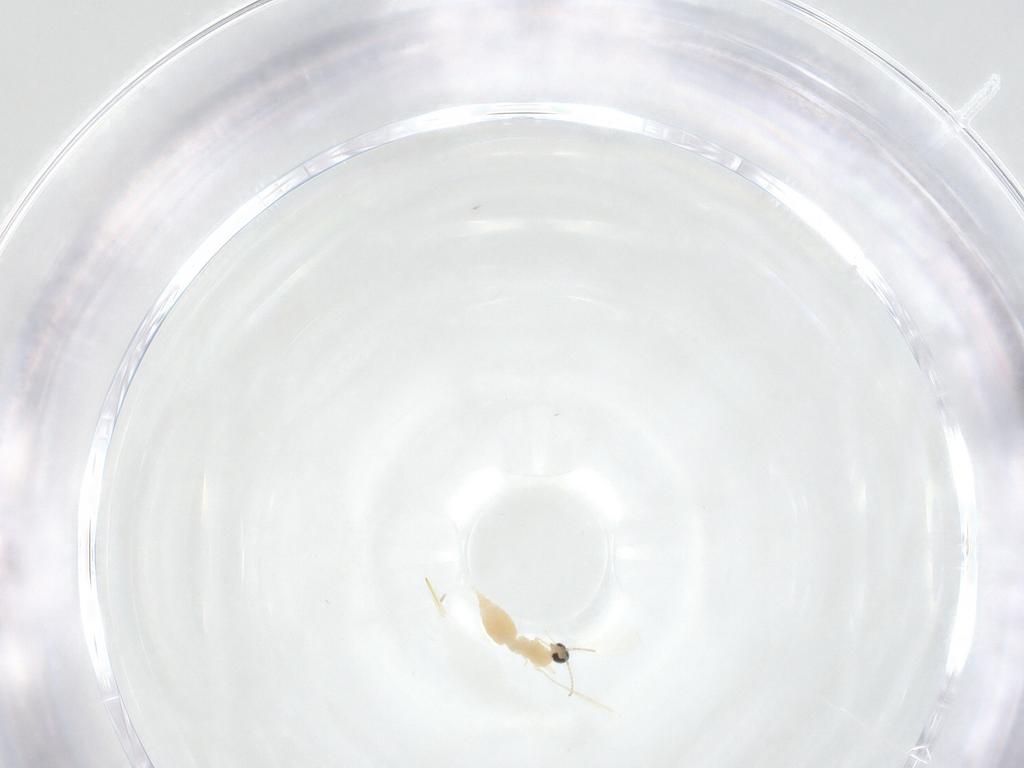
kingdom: Animalia
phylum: Arthropoda
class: Insecta
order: Diptera
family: Cecidomyiidae
